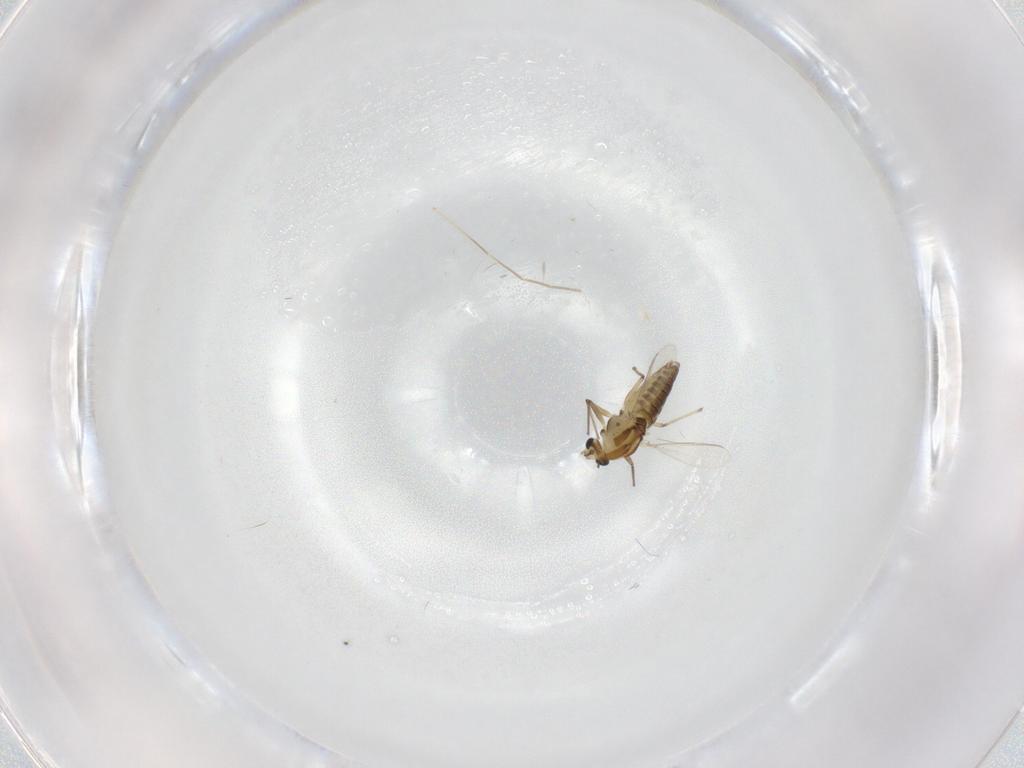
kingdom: Animalia
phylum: Arthropoda
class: Insecta
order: Diptera
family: Chironomidae
